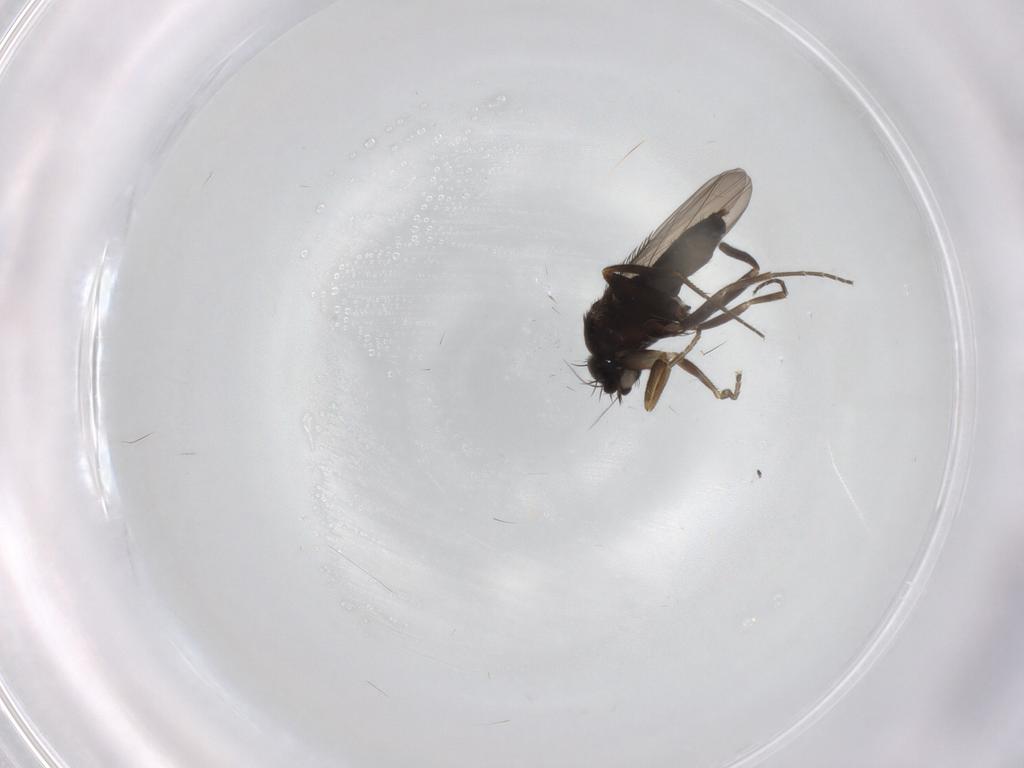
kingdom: Animalia
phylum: Arthropoda
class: Insecta
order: Diptera
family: Phoridae
